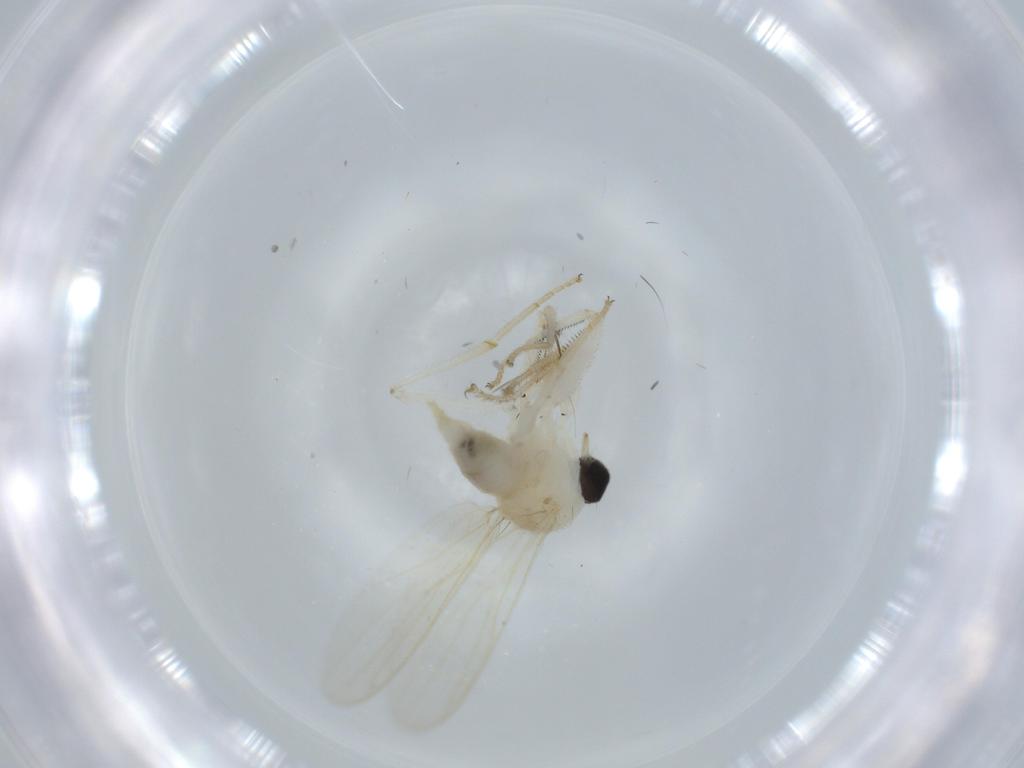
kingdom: Animalia
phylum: Arthropoda
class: Insecta
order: Diptera
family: Hybotidae
